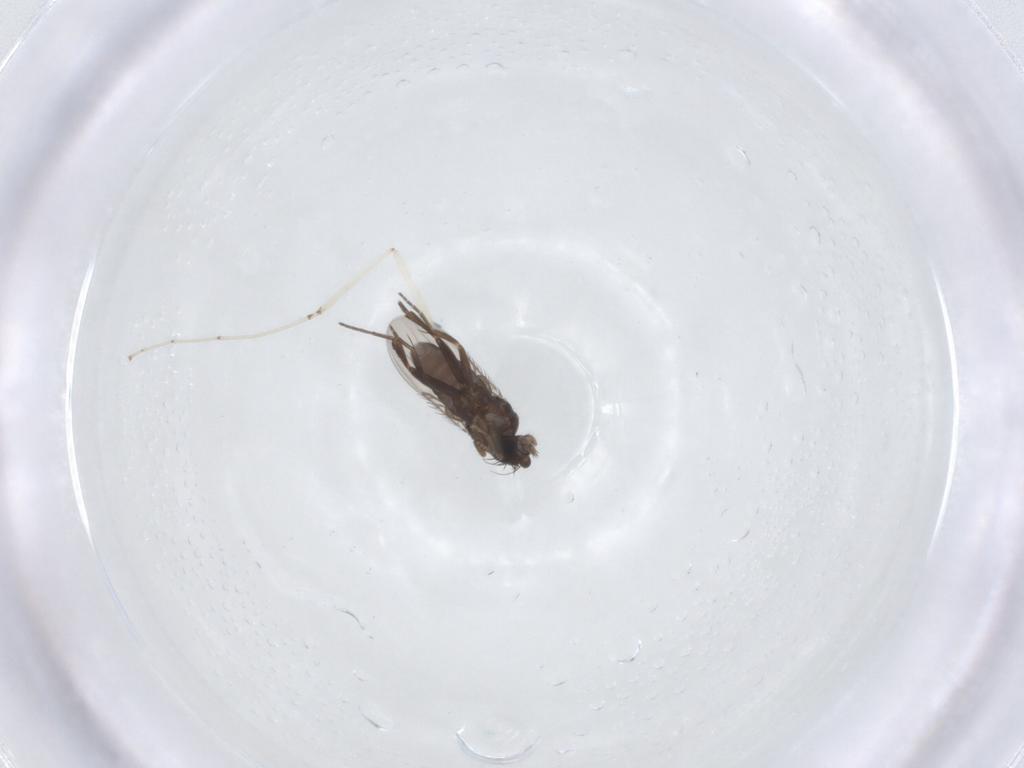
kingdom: Animalia
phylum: Arthropoda
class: Insecta
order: Diptera
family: Phoridae
